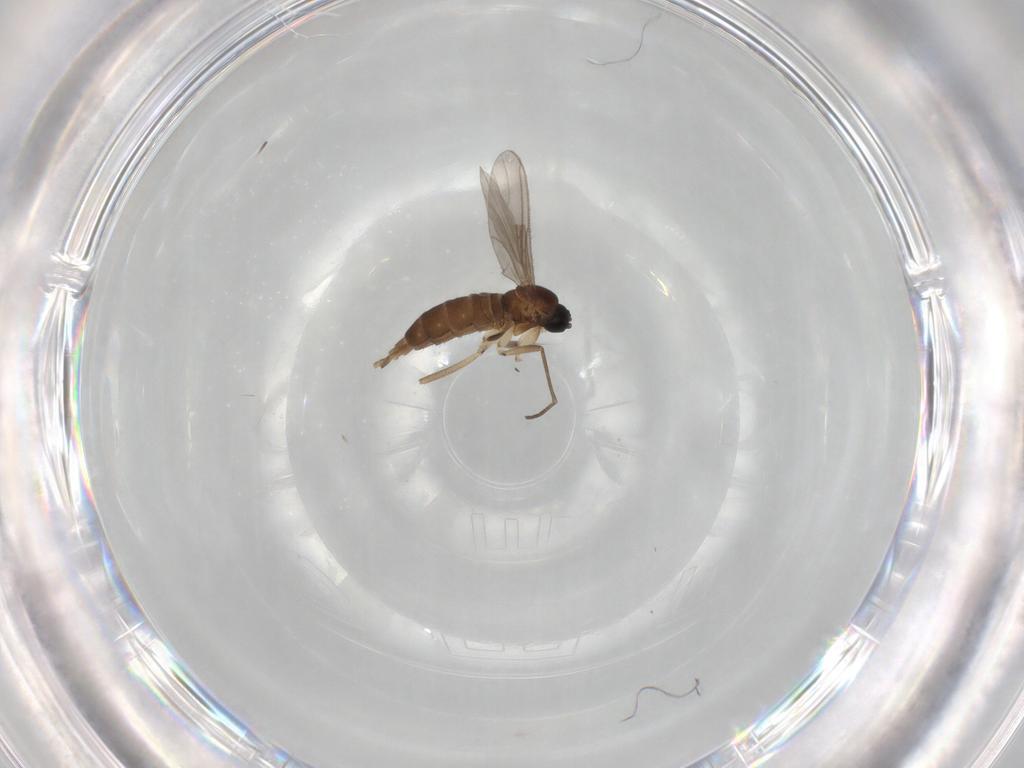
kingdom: Animalia
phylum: Arthropoda
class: Insecta
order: Diptera
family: Sciaridae
